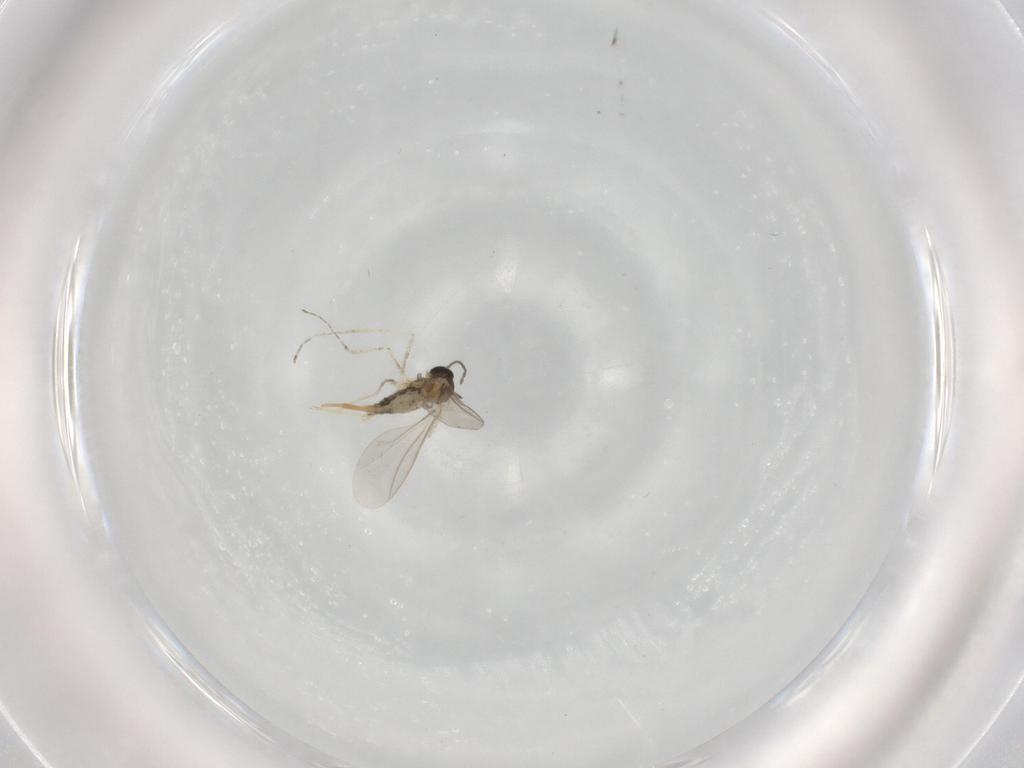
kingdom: Animalia
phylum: Arthropoda
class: Insecta
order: Diptera
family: Cecidomyiidae
